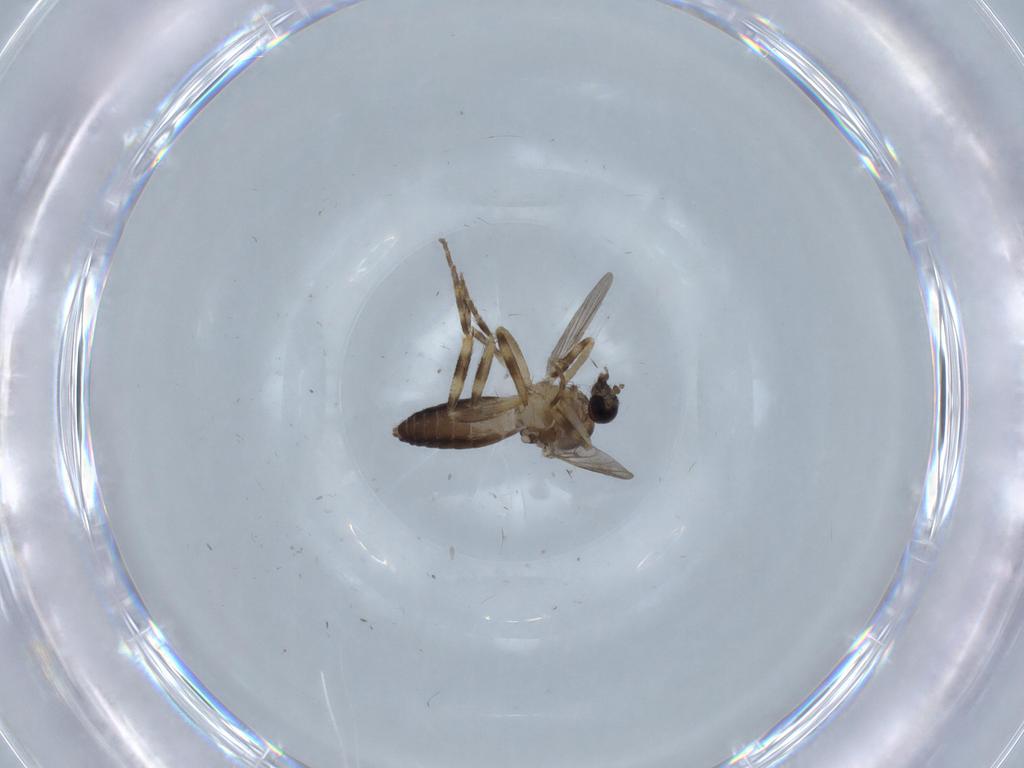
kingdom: Animalia
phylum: Arthropoda
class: Insecta
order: Diptera
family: Ceratopogonidae
